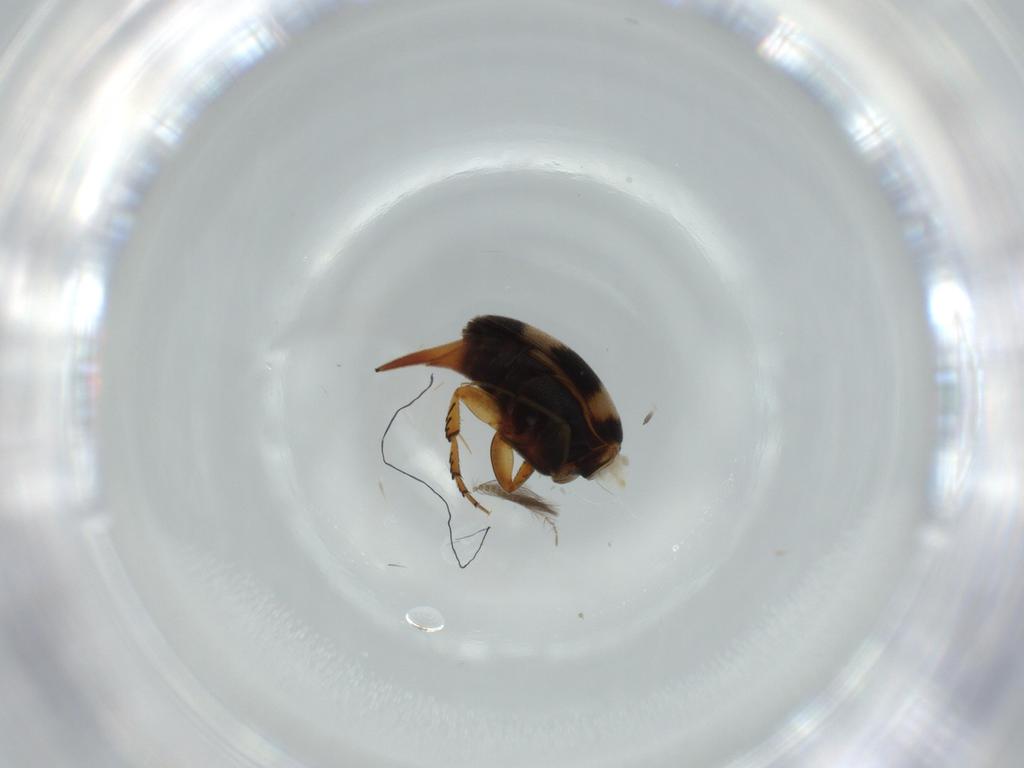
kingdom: Animalia
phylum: Arthropoda
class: Insecta
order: Coleoptera
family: Mordellidae
